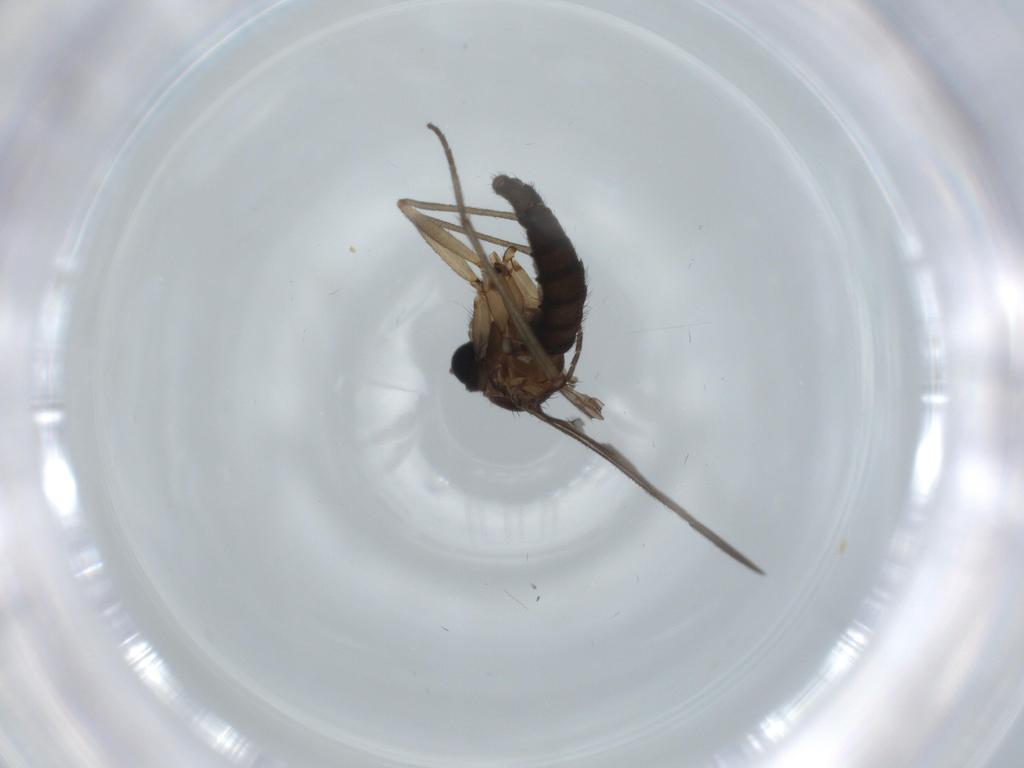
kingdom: Animalia
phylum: Arthropoda
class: Insecta
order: Diptera
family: Sciaridae
